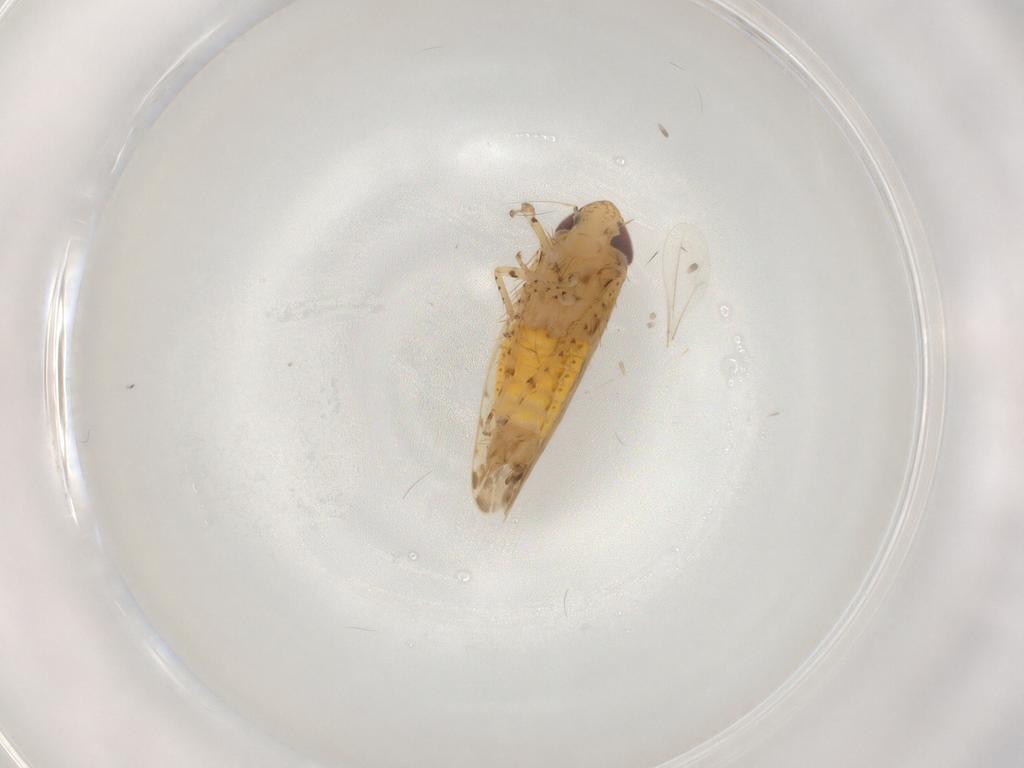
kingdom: Animalia
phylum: Arthropoda
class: Insecta
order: Hemiptera
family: Cicadellidae
